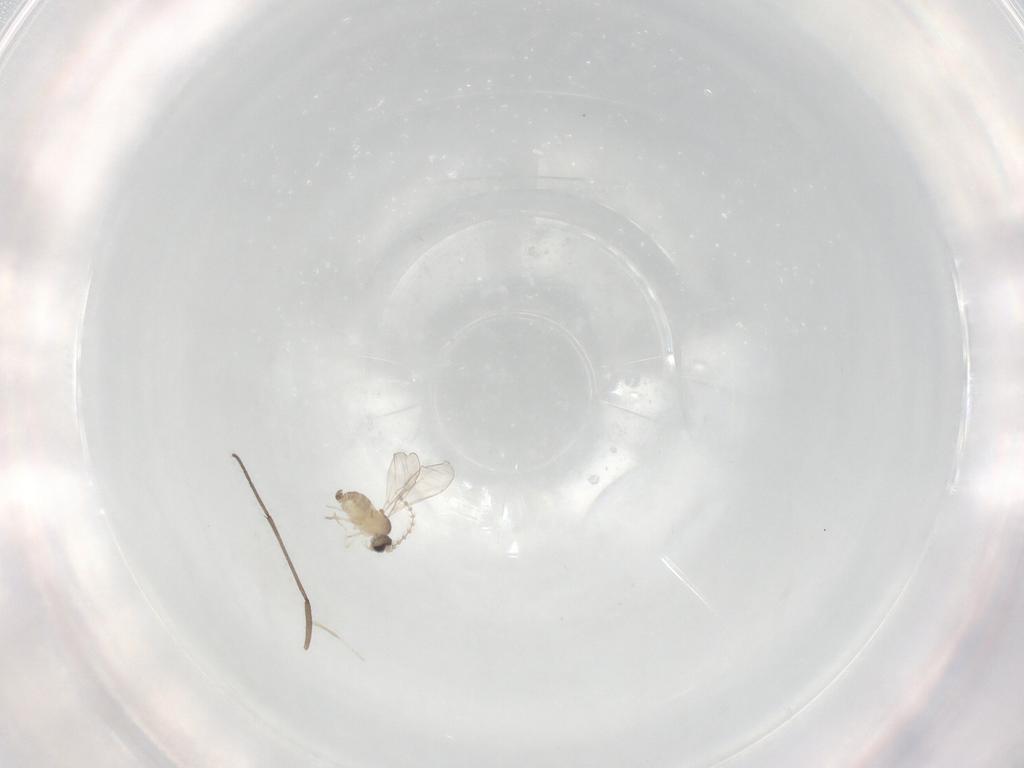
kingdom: Animalia
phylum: Arthropoda
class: Insecta
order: Diptera
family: Cecidomyiidae
